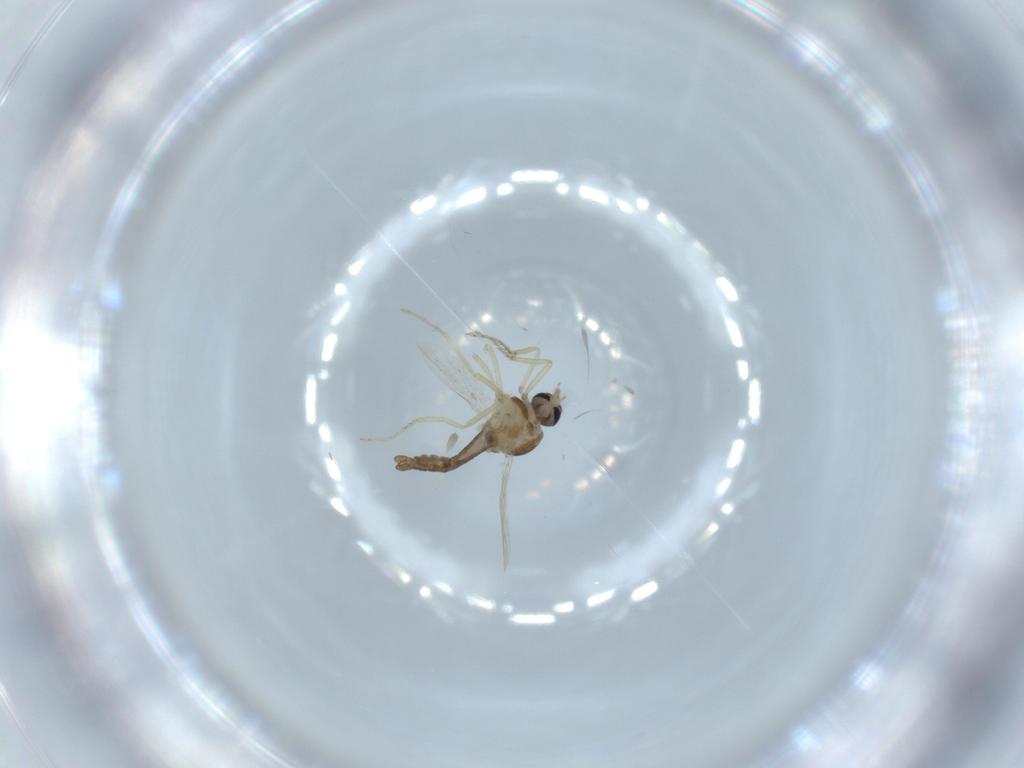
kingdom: Animalia
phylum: Arthropoda
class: Insecta
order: Diptera
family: Ceratopogonidae
